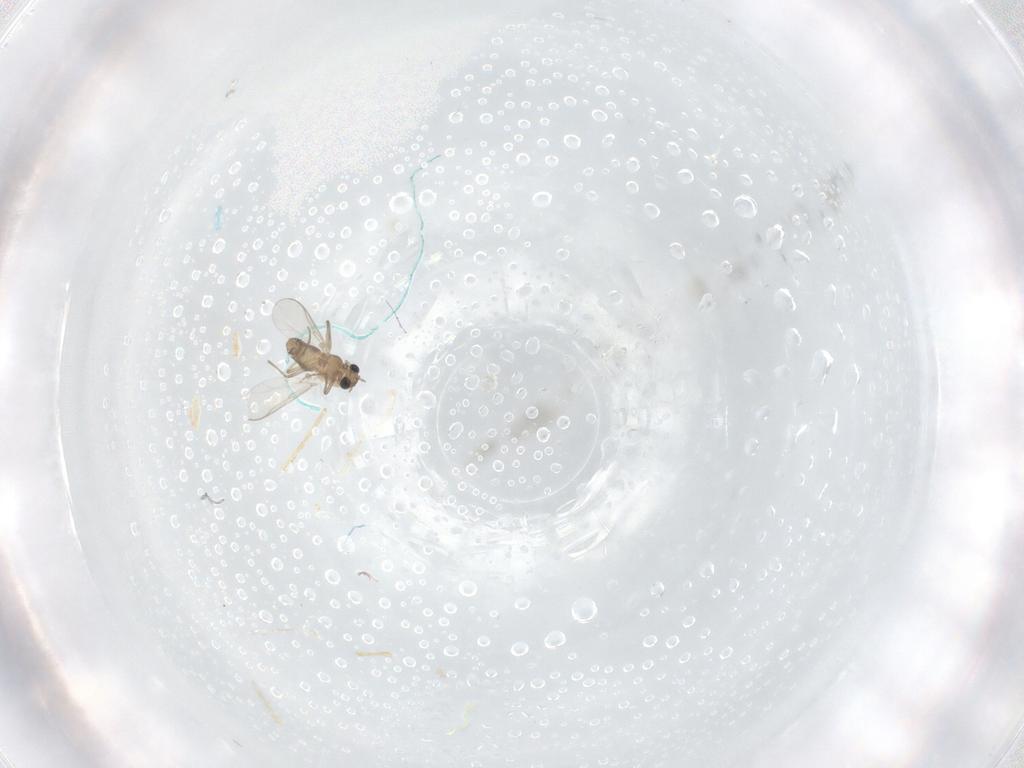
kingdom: Animalia
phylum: Arthropoda
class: Insecta
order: Diptera
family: Chironomidae
